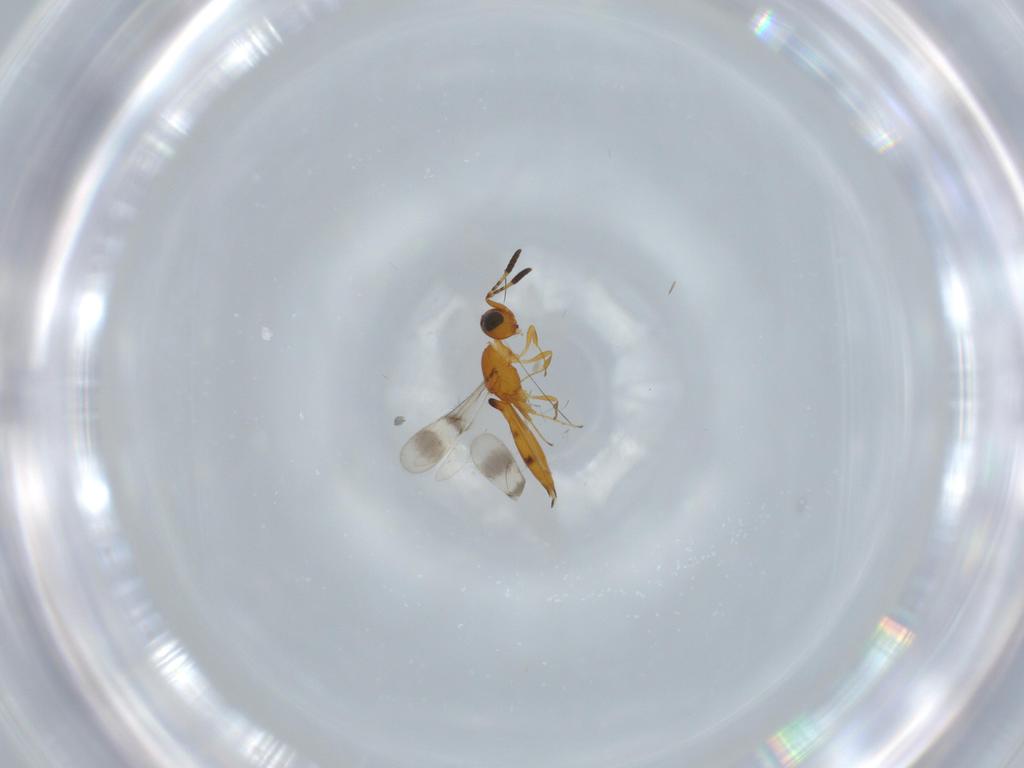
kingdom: Animalia
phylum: Arthropoda
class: Insecta
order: Hymenoptera
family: Scelionidae
